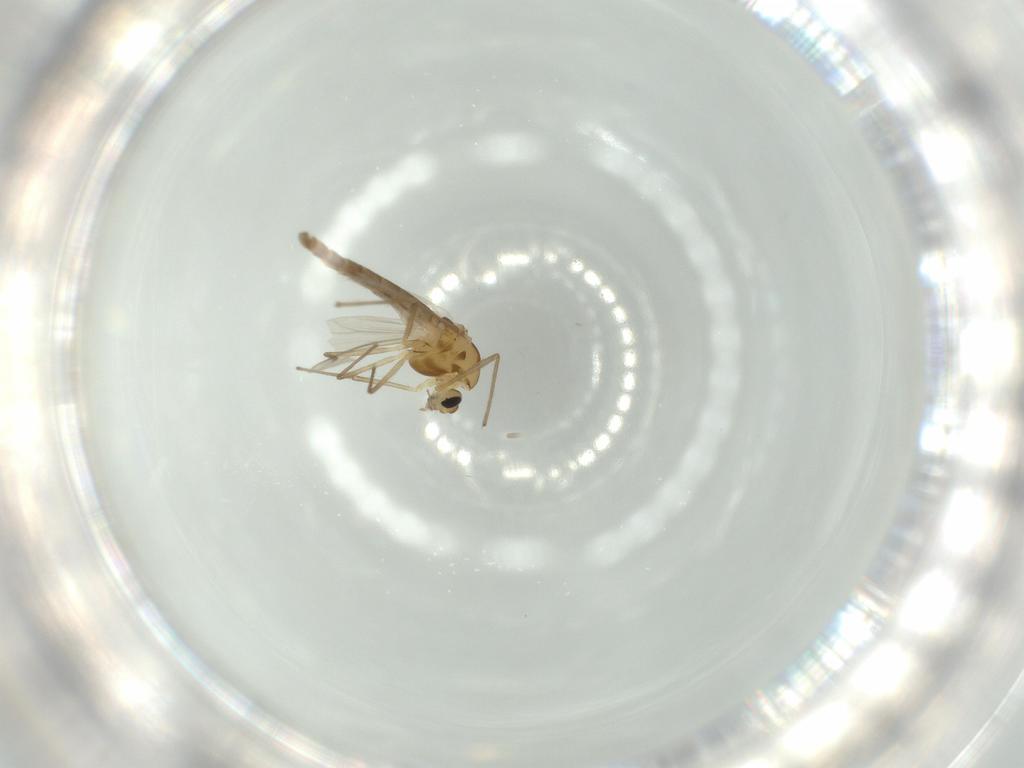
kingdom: Animalia
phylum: Arthropoda
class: Insecta
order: Diptera
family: Chironomidae
